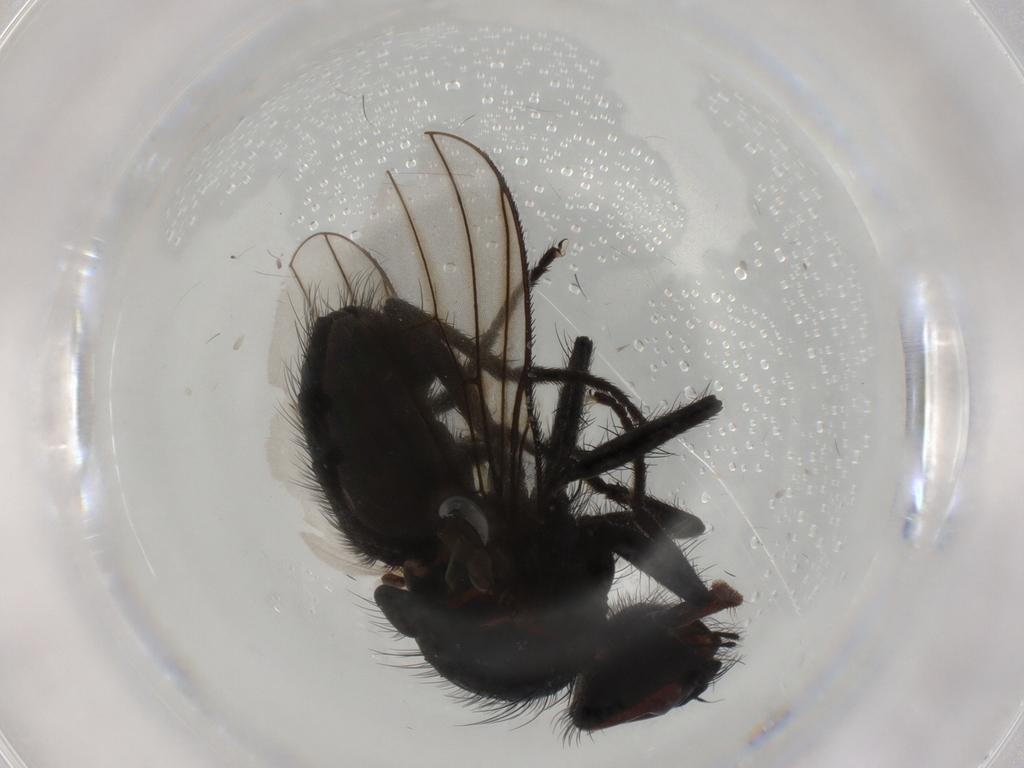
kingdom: Animalia
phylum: Arthropoda
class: Insecta
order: Diptera
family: Muscidae
